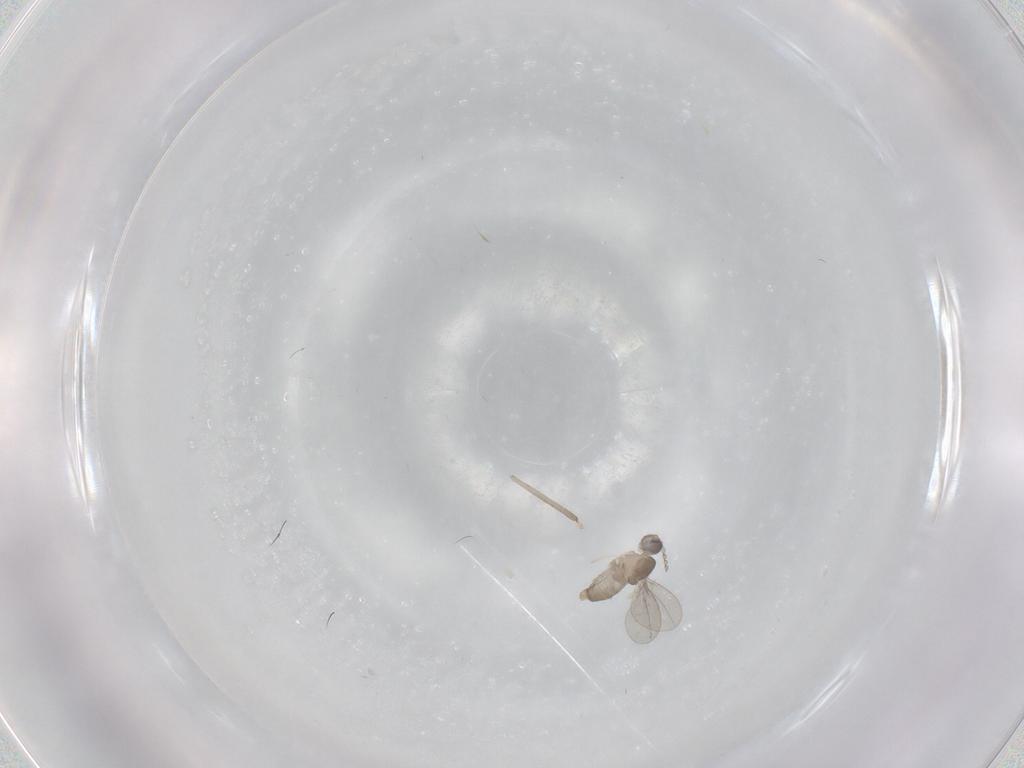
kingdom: Animalia
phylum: Arthropoda
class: Insecta
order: Diptera
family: Cecidomyiidae
